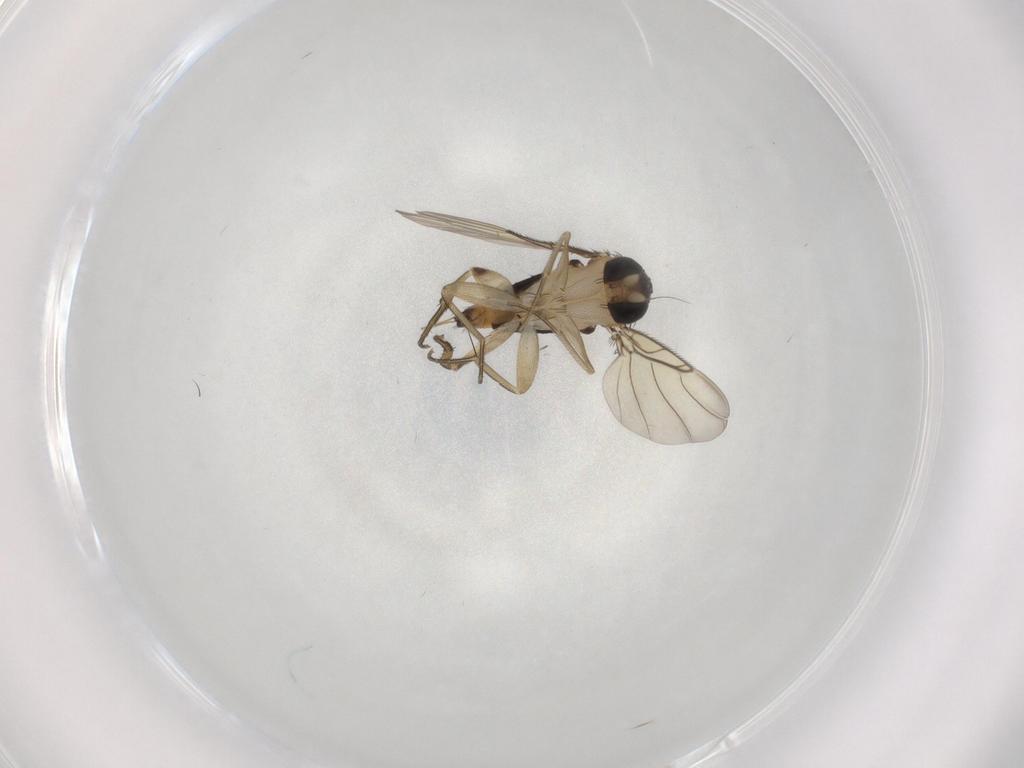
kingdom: Animalia
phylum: Arthropoda
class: Insecta
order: Diptera
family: Phoridae
